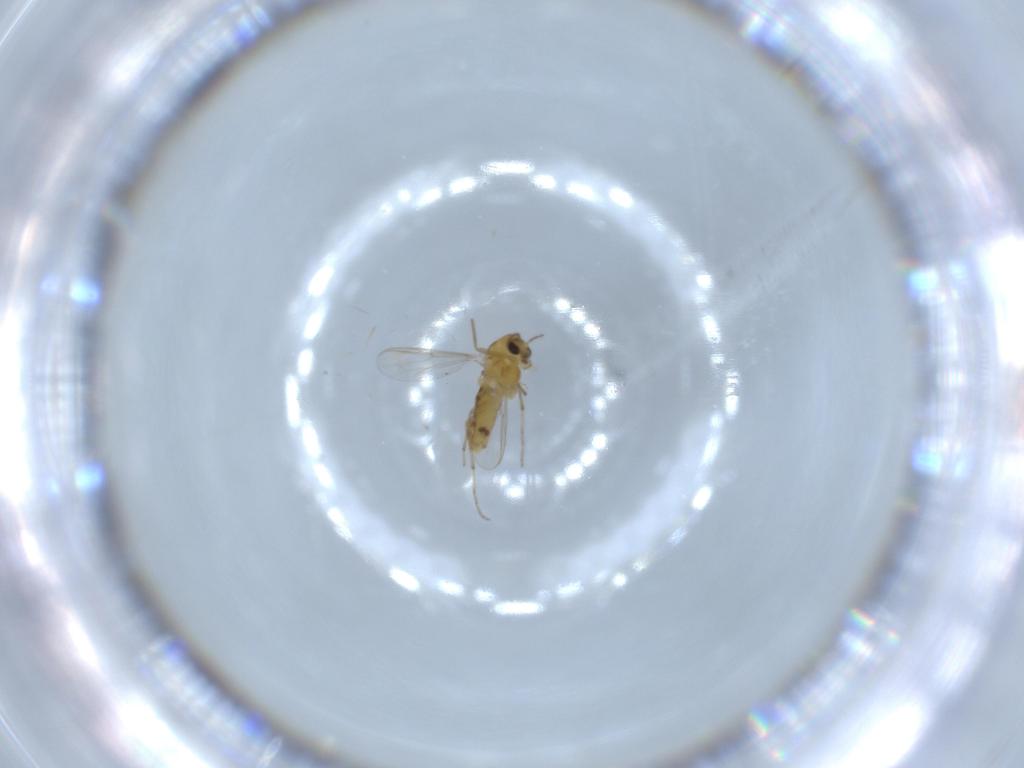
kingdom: Animalia
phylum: Arthropoda
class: Insecta
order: Diptera
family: Chironomidae
